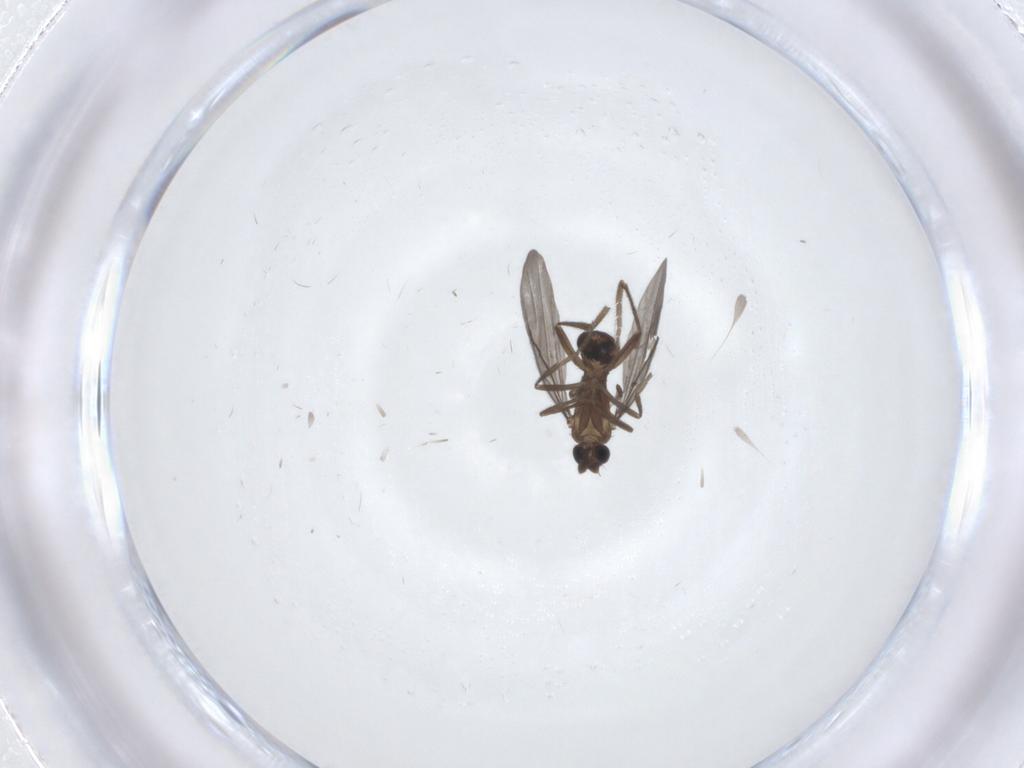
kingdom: Animalia
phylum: Arthropoda
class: Insecta
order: Diptera
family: Phoridae
